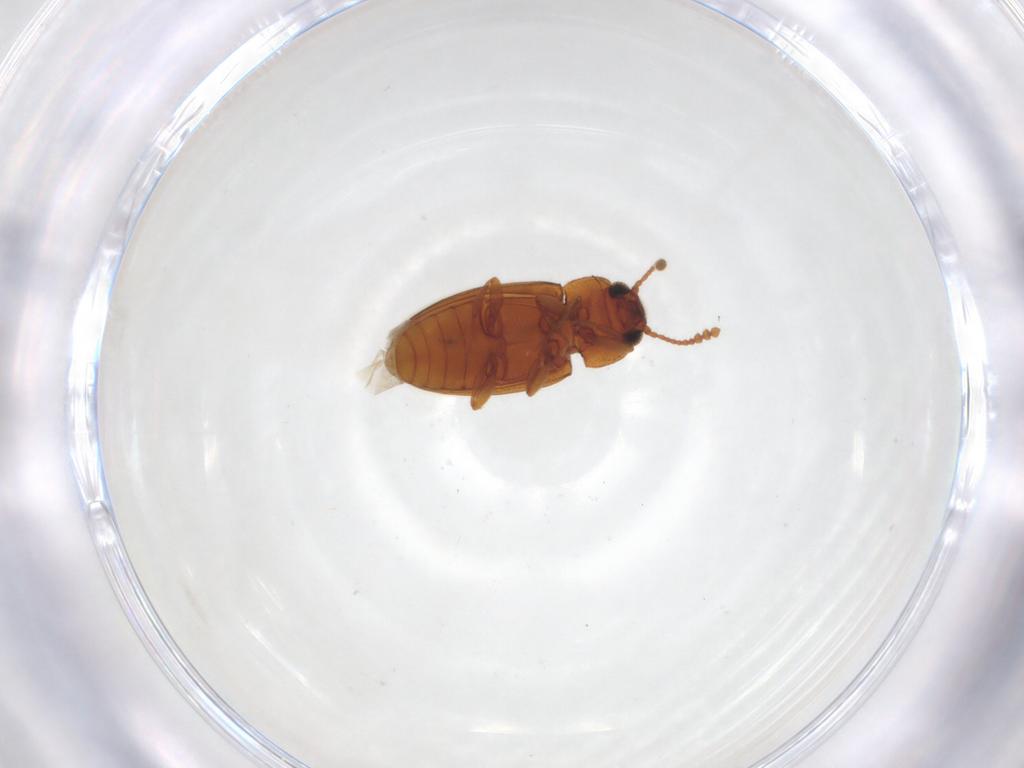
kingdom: Animalia
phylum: Arthropoda
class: Insecta
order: Coleoptera
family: Erotylidae
